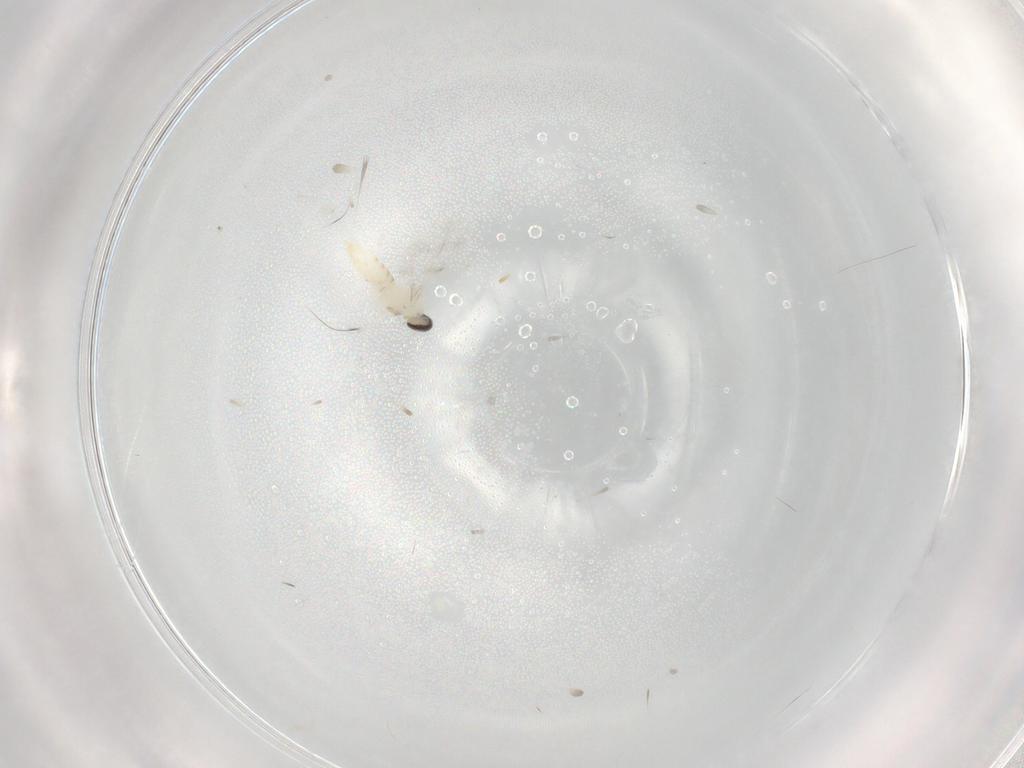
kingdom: Animalia
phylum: Arthropoda
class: Insecta
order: Diptera
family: Cecidomyiidae
